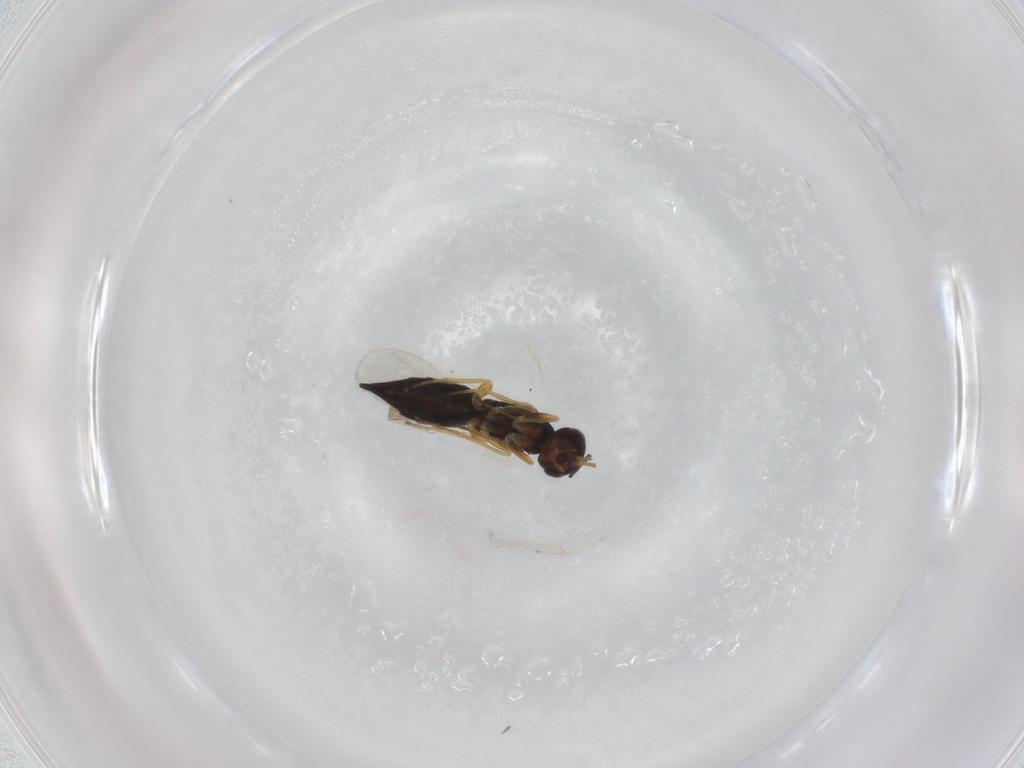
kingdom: Animalia
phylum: Arthropoda
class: Insecta
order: Hymenoptera
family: Eulophidae
